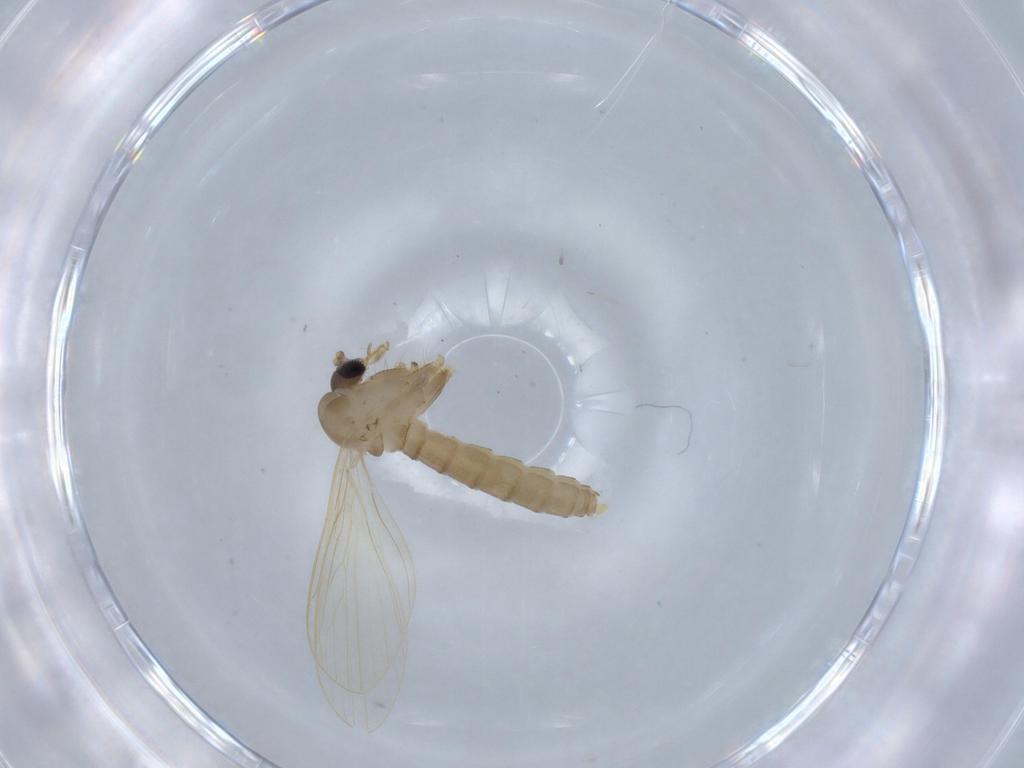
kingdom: Animalia
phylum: Arthropoda
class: Insecta
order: Diptera
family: Psychodidae
